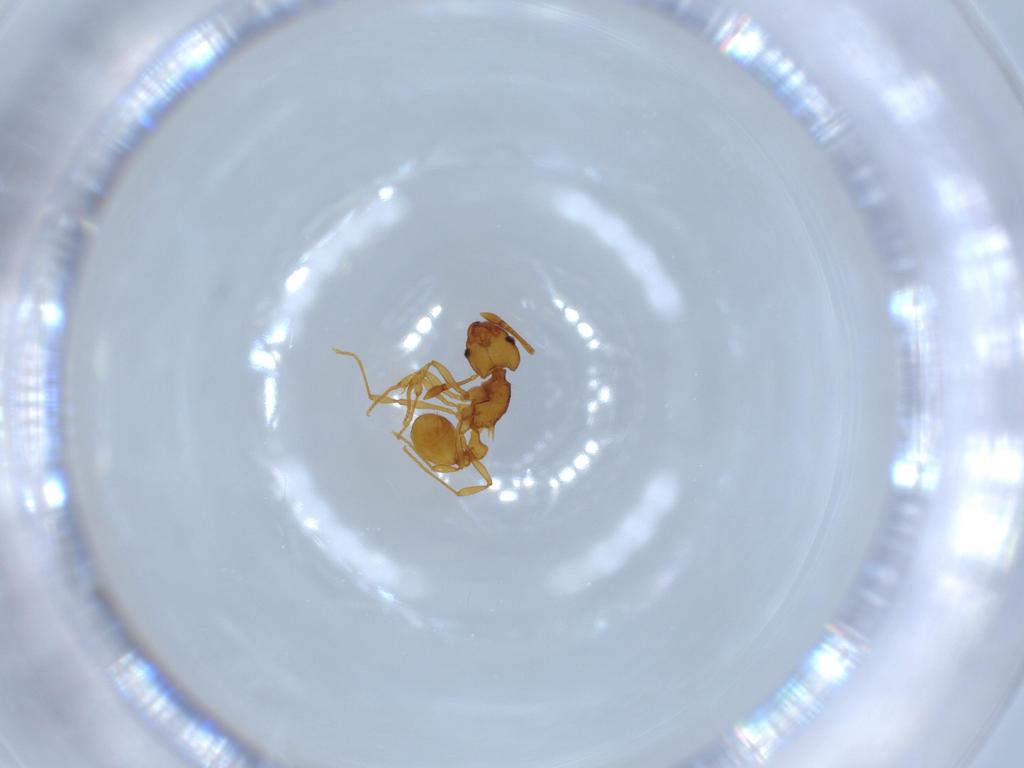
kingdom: Animalia
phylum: Arthropoda
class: Insecta
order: Hymenoptera
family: Formicidae
